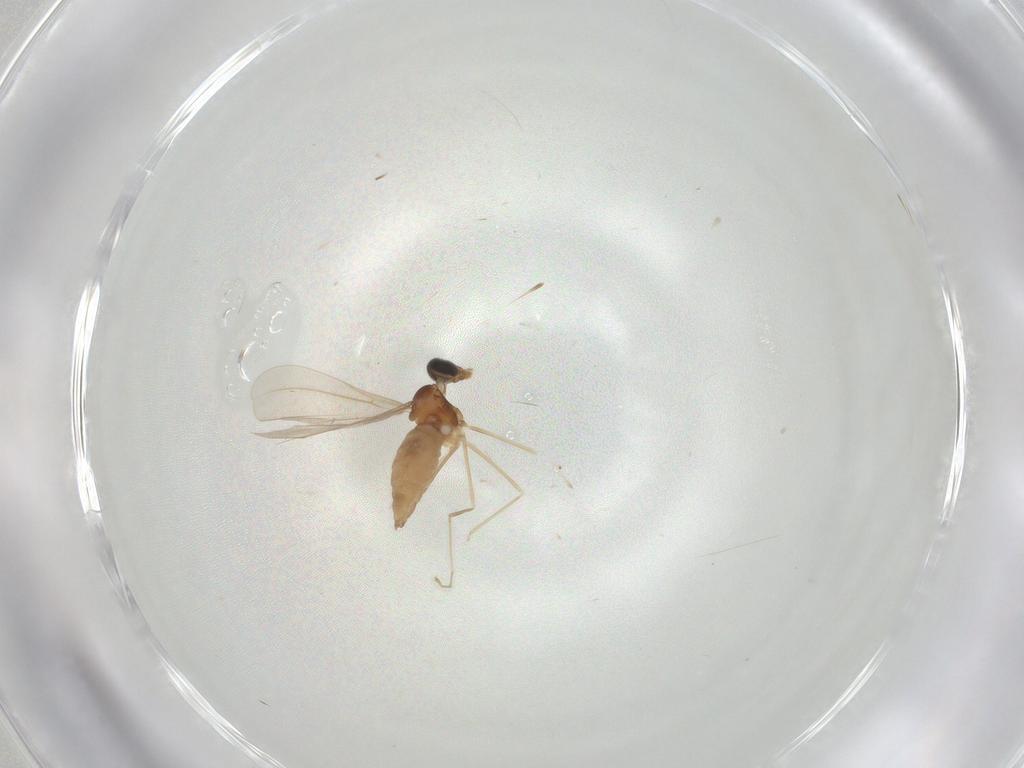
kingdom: Animalia
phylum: Arthropoda
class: Insecta
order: Diptera
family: Cecidomyiidae
